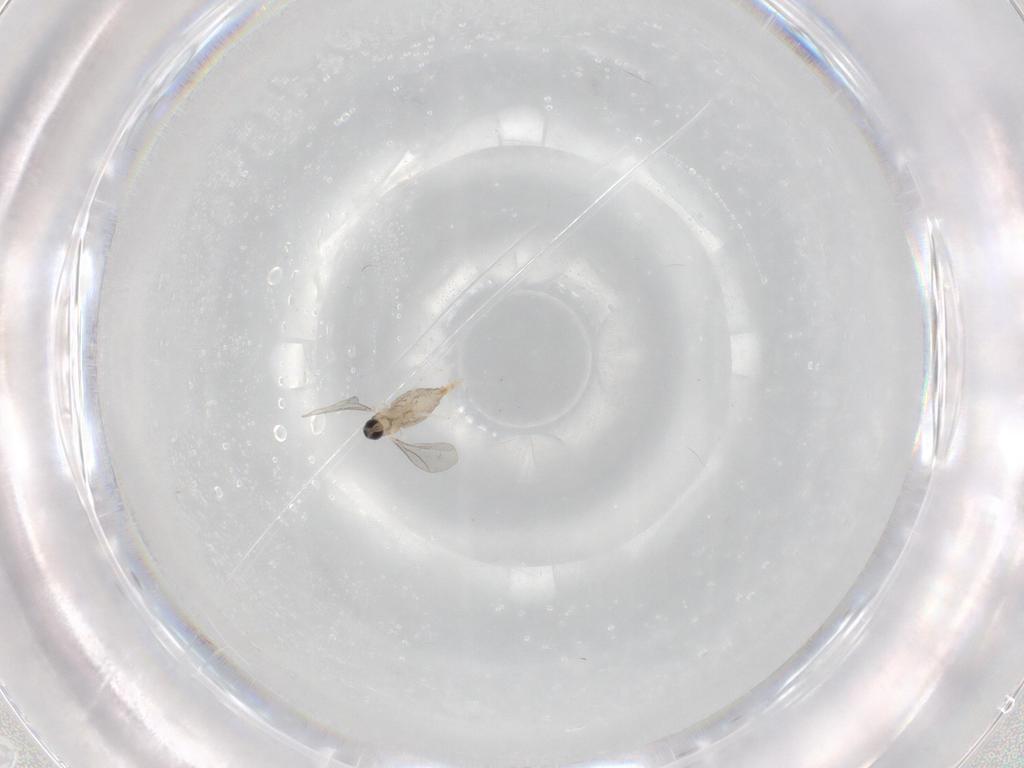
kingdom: Animalia
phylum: Arthropoda
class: Insecta
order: Diptera
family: Cecidomyiidae
